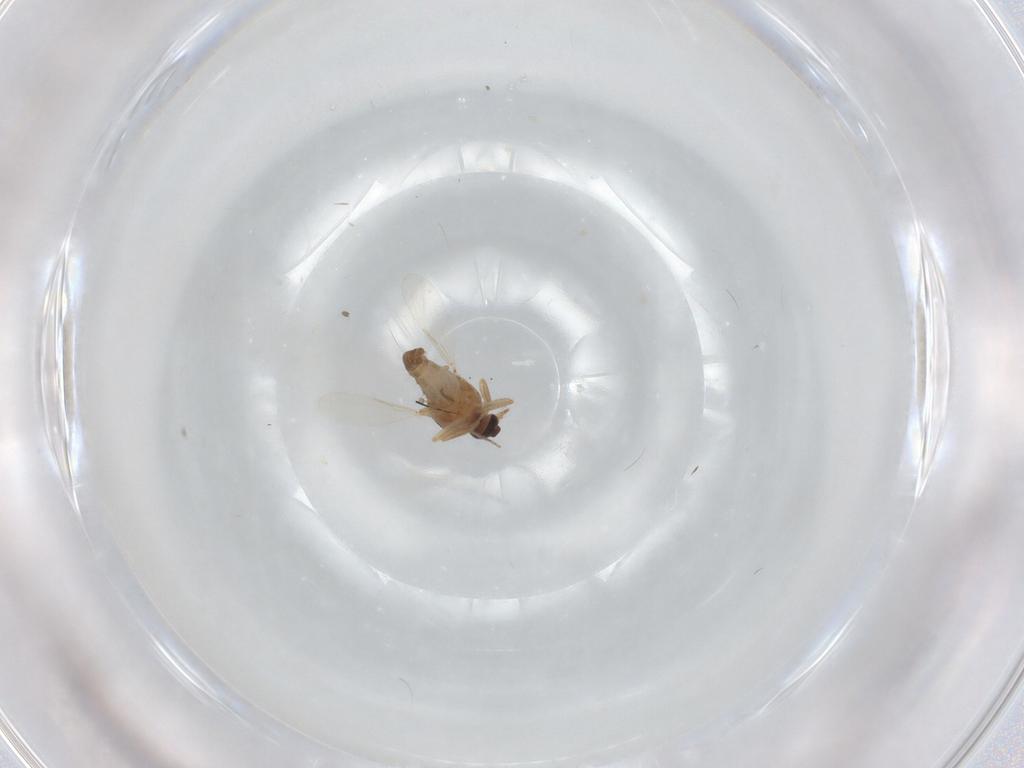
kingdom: Animalia
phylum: Arthropoda
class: Insecta
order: Diptera
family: Ceratopogonidae
